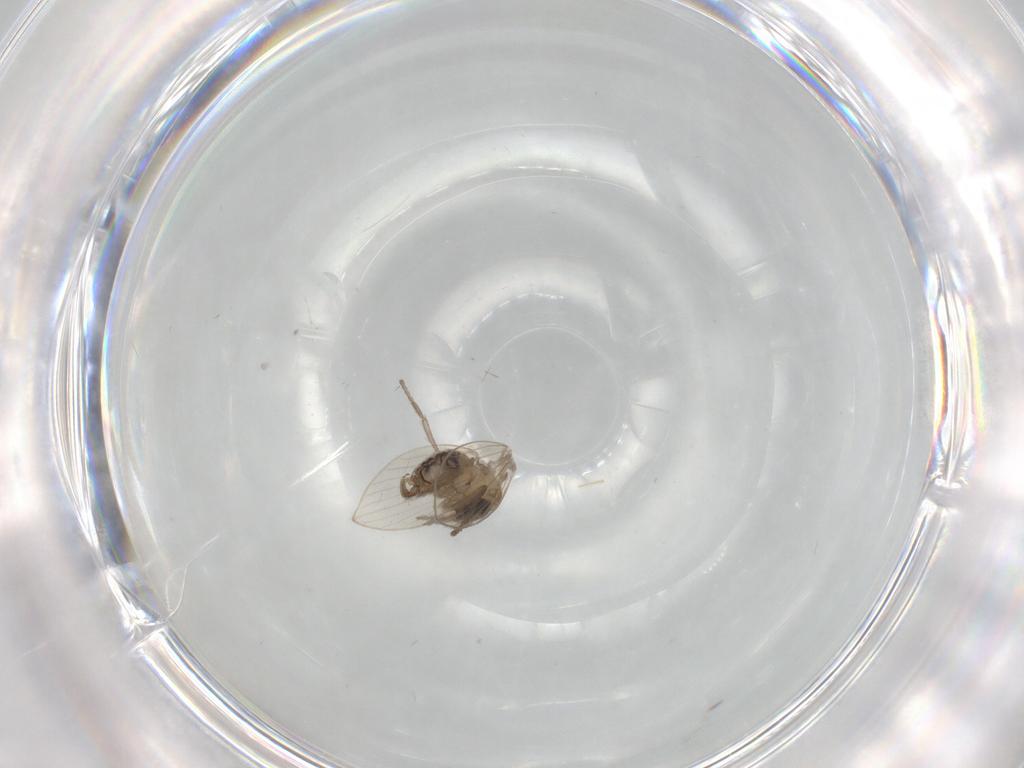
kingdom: Animalia
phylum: Arthropoda
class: Insecta
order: Diptera
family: Psychodidae
